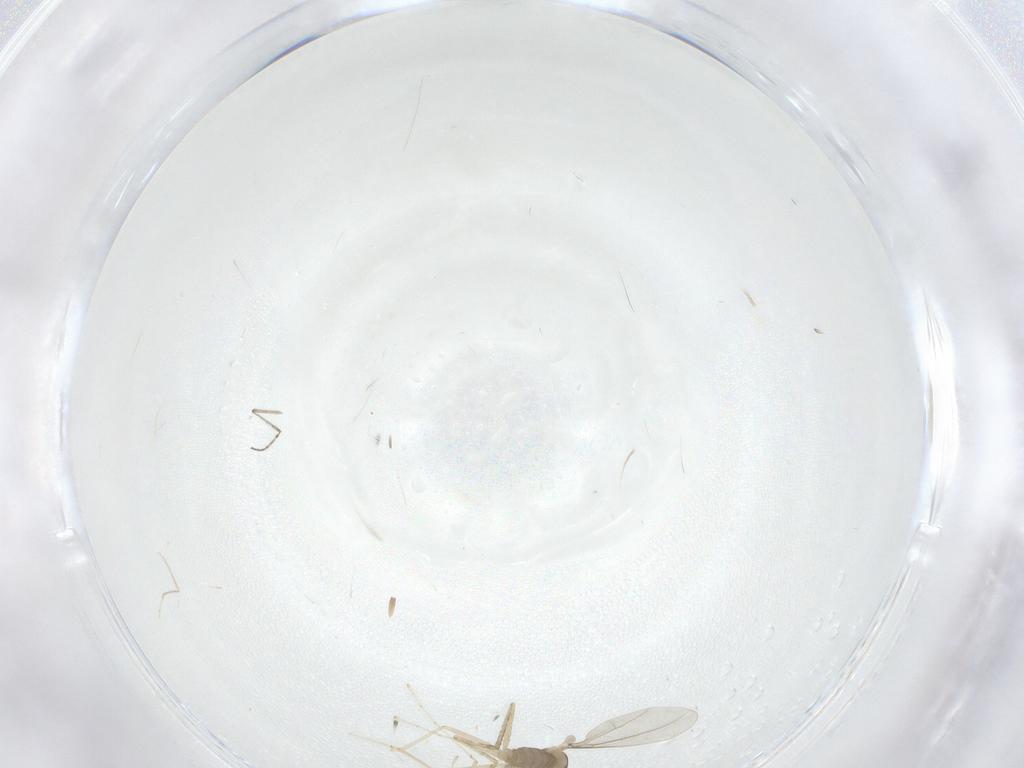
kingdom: Animalia
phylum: Arthropoda
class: Insecta
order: Diptera
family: Cecidomyiidae
